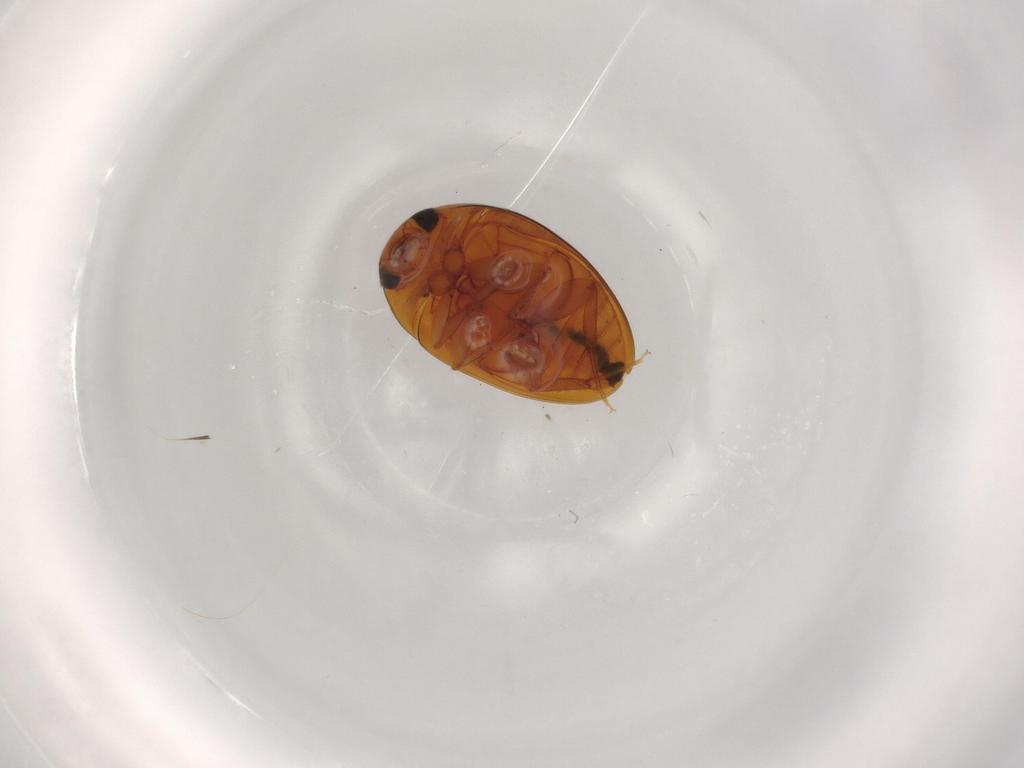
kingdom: Animalia
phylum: Arthropoda
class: Insecta
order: Coleoptera
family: Phalacridae
